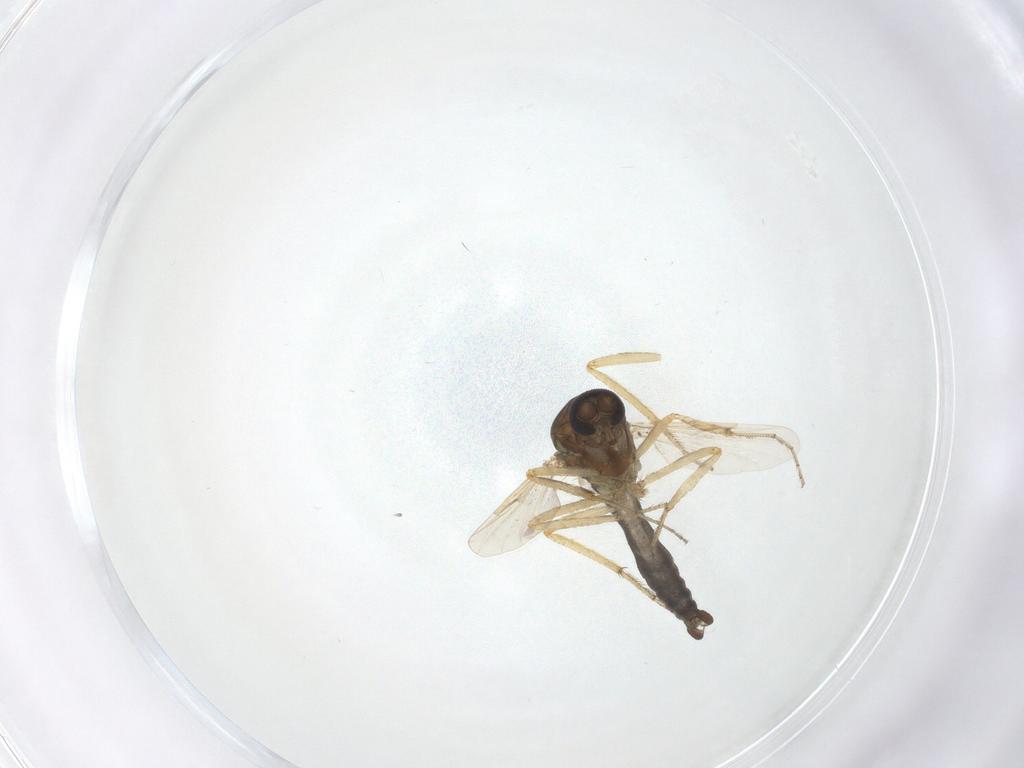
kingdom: Animalia
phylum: Arthropoda
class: Insecta
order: Diptera
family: Ceratopogonidae
